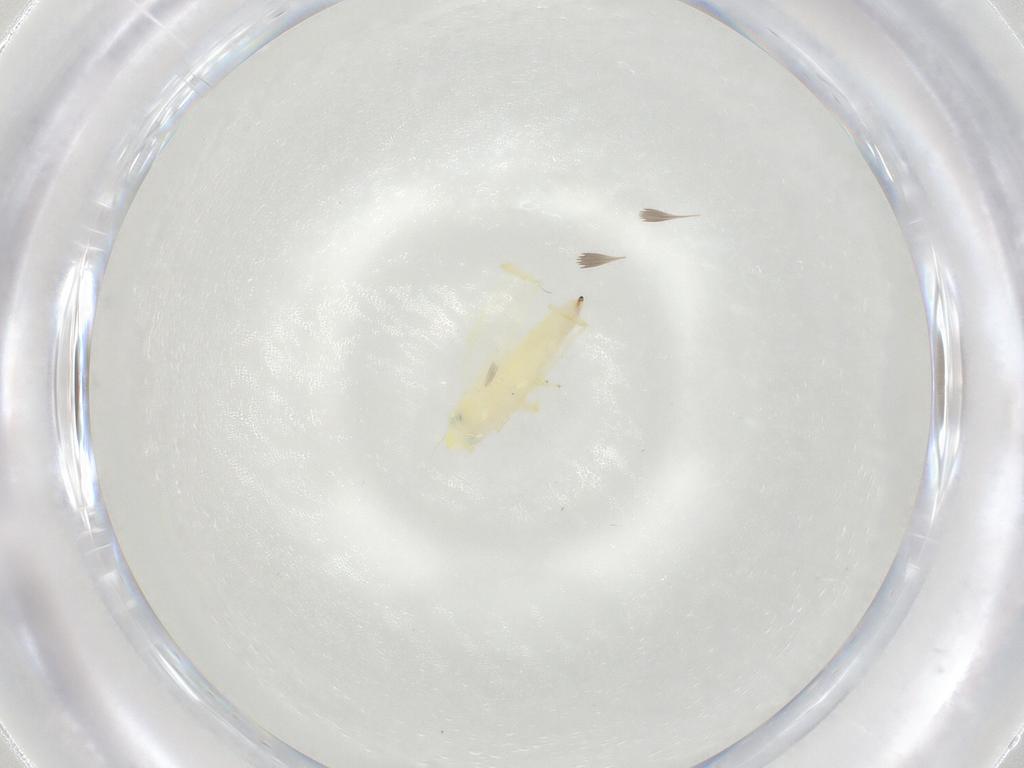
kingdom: Animalia
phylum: Arthropoda
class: Insecta
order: Hemiptera
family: Cicadellidae
